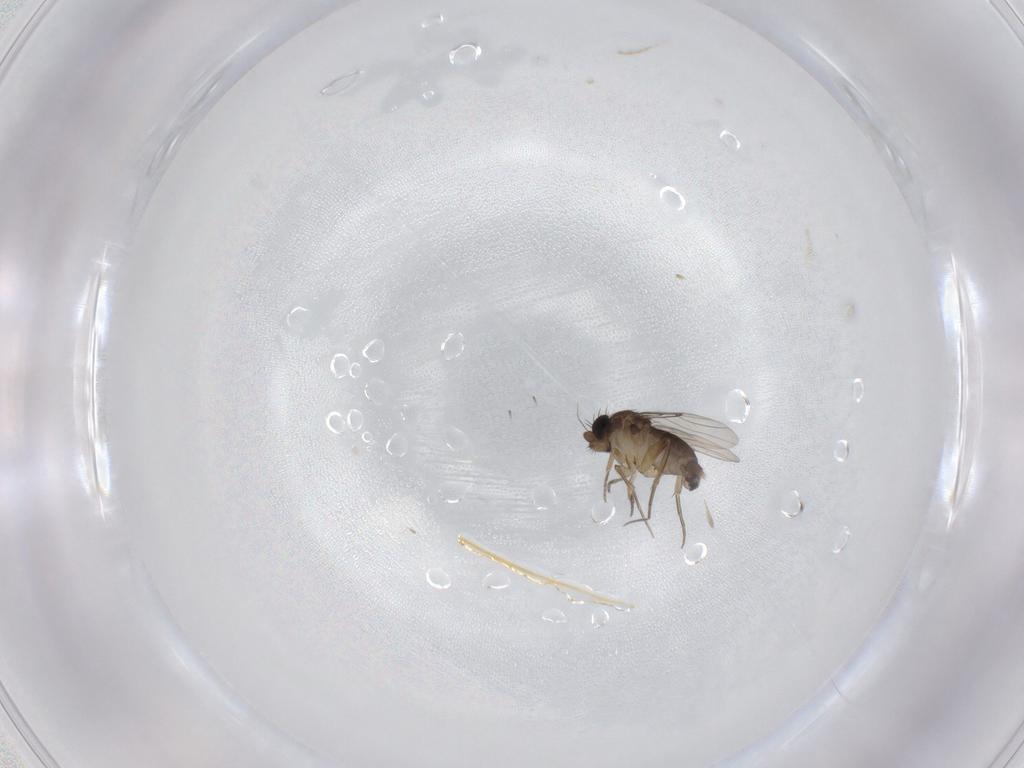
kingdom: Animalia
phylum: Arthropoda
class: Insecta
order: Diptera
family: Phoridae
